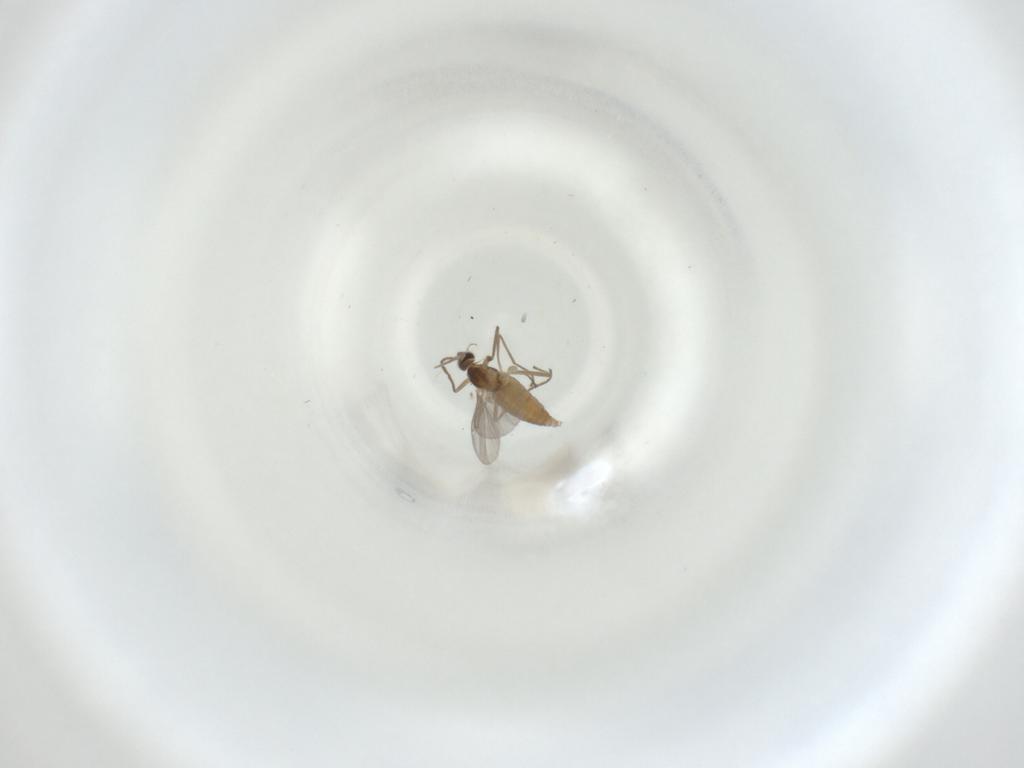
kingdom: Animalia
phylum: Arthropoda
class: Insecta
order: Diptera
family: Cecidomyiidae
